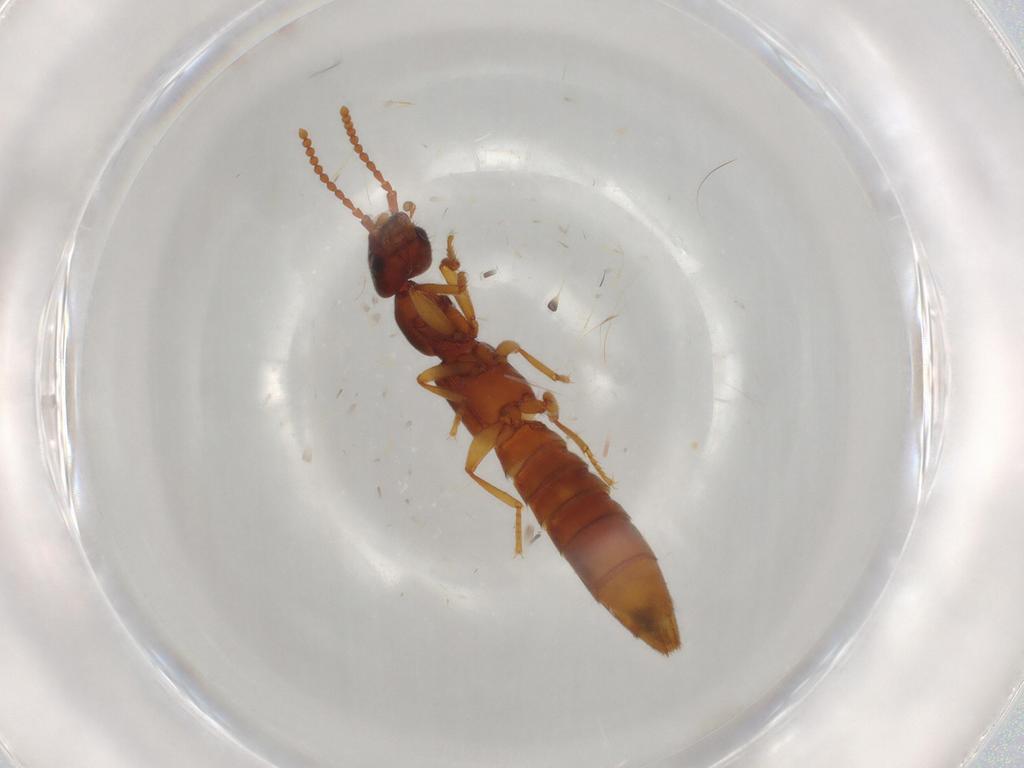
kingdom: Animalia
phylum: Arthropoda
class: Insecta
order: Coleoptera
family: Staphylinidae
